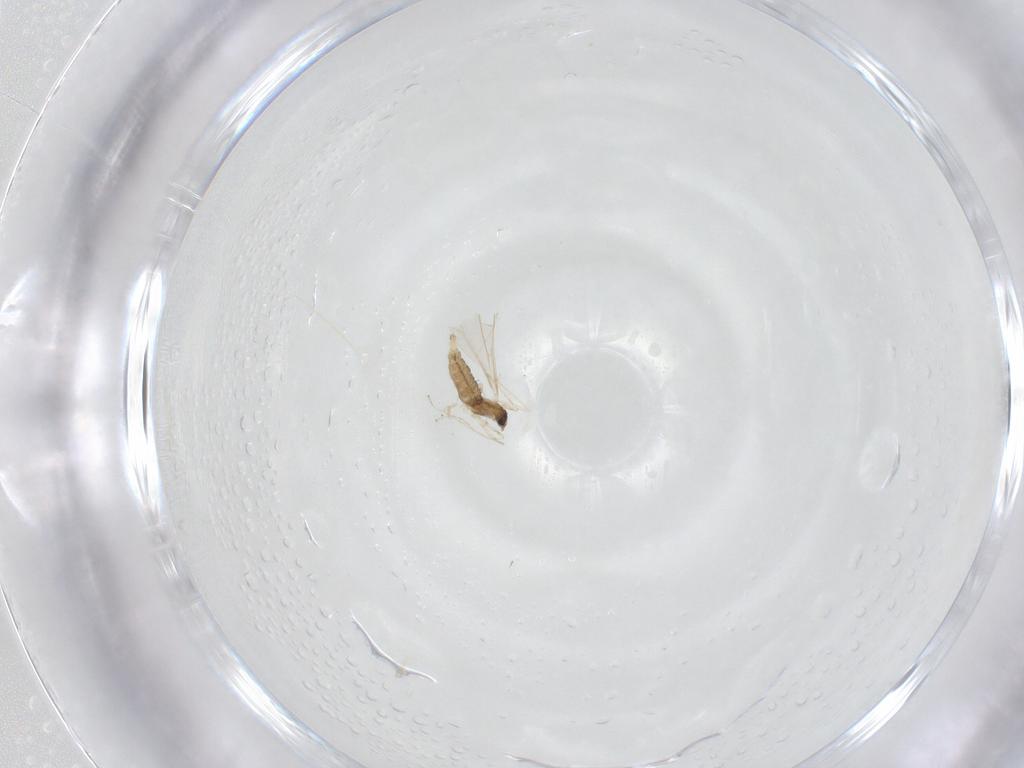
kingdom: Animalia
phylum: Arthropoda
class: Insecta
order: Diptera
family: Cecidomyiidae
